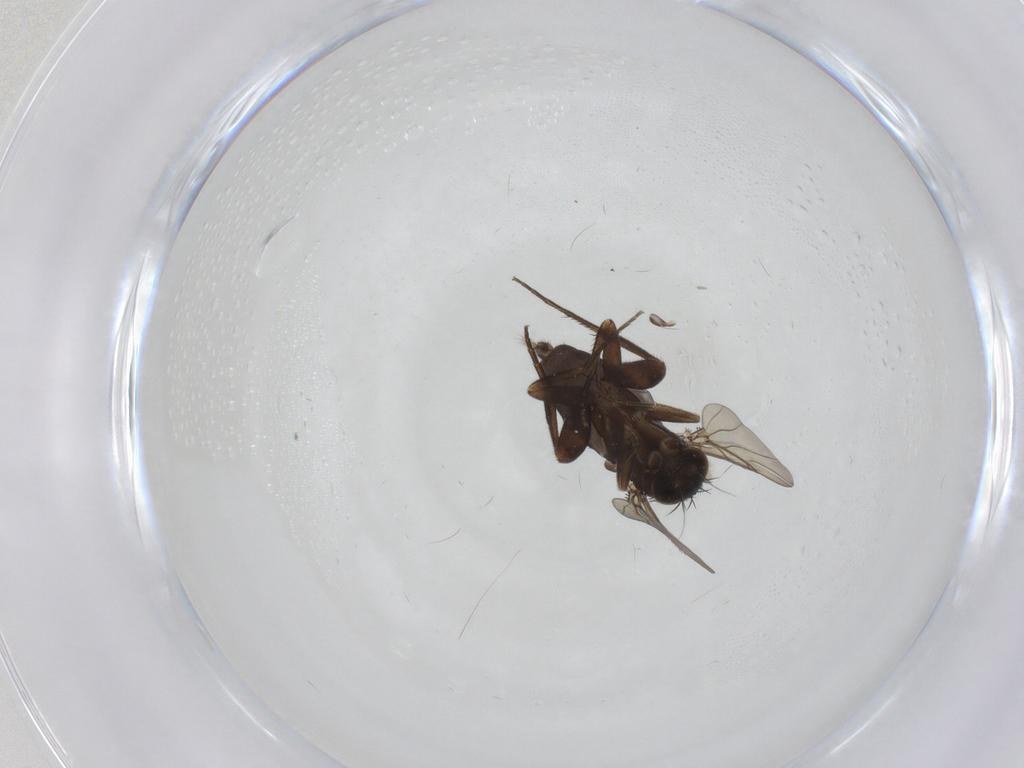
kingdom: Animalia
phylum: Arthropoda
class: Insecta
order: Diptera
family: Phoridae
